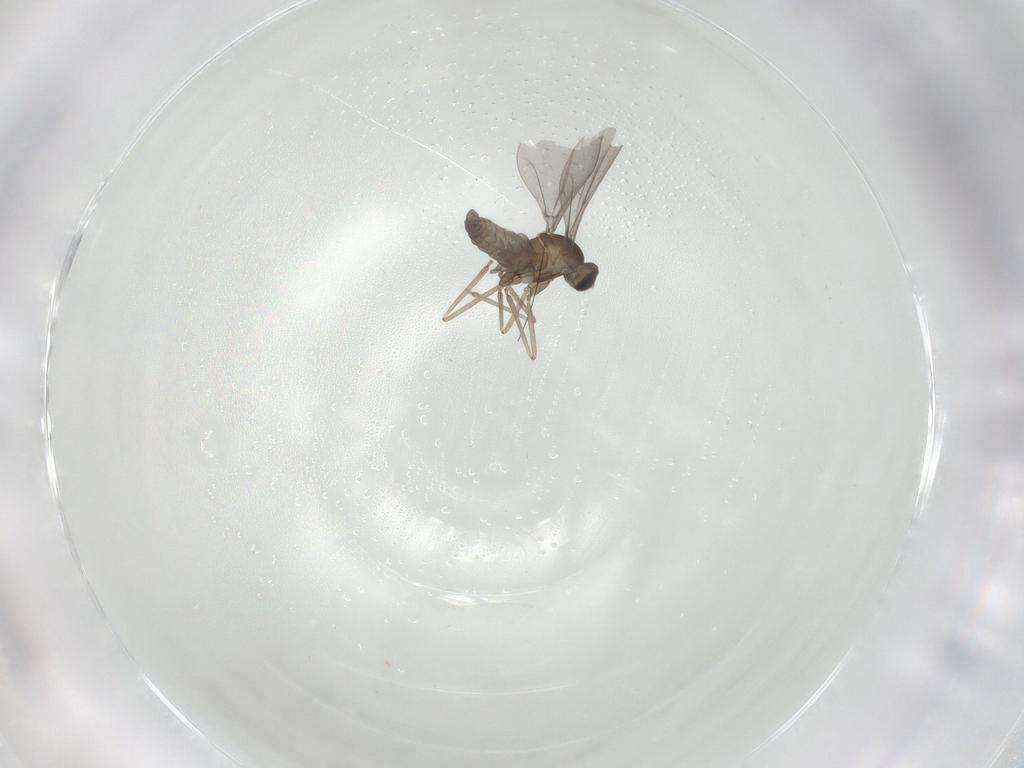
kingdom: Animalia
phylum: Arthropoda
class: Insecta
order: Diptera
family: Cecidomyiidae
